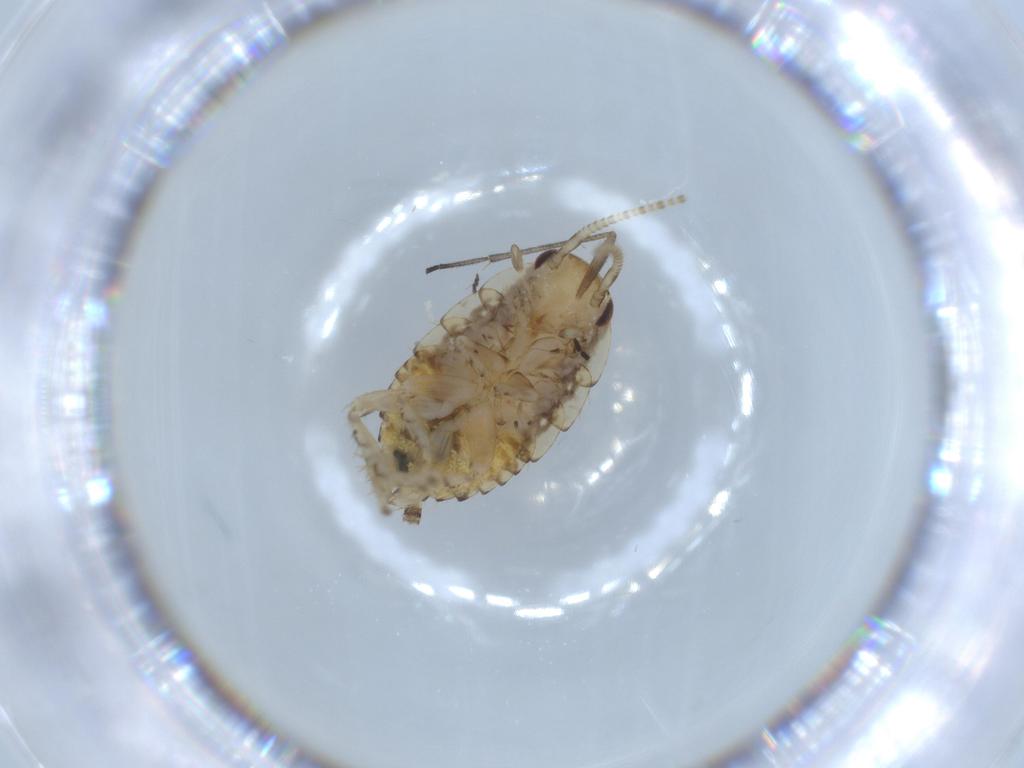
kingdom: Animalia
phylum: Arthropoda
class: Insecta
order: Blattodea
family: Ectobiidae
